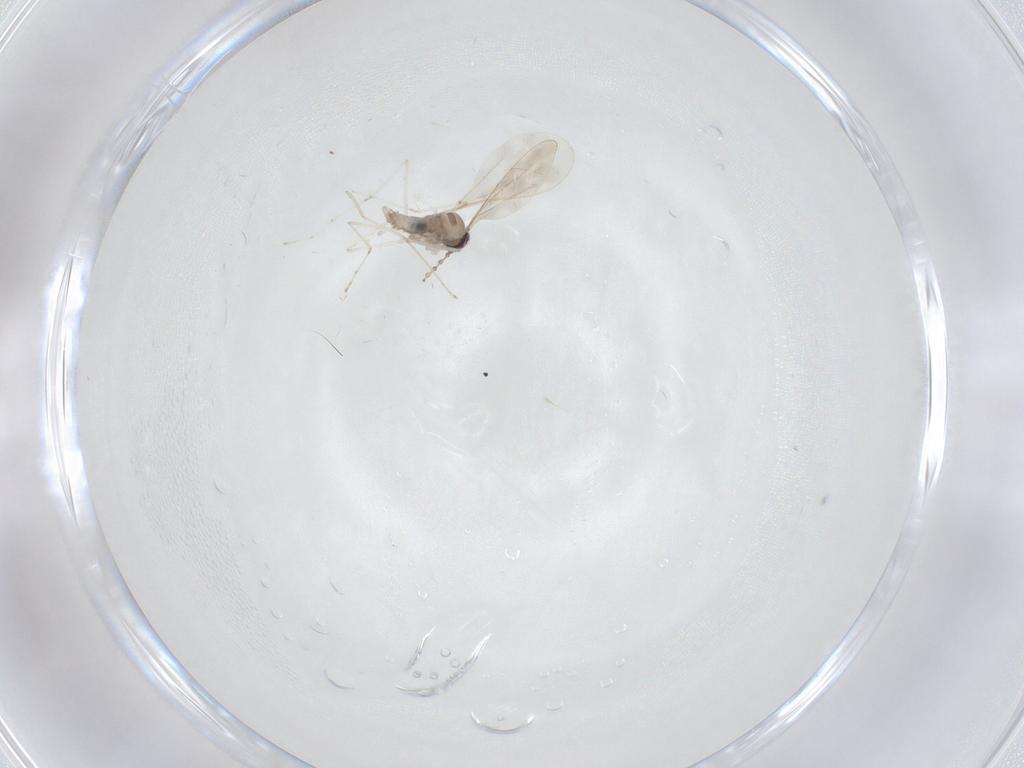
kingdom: Animalia
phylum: Arthropoda
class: Insecta
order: Diptera
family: Cecidomyiidae
